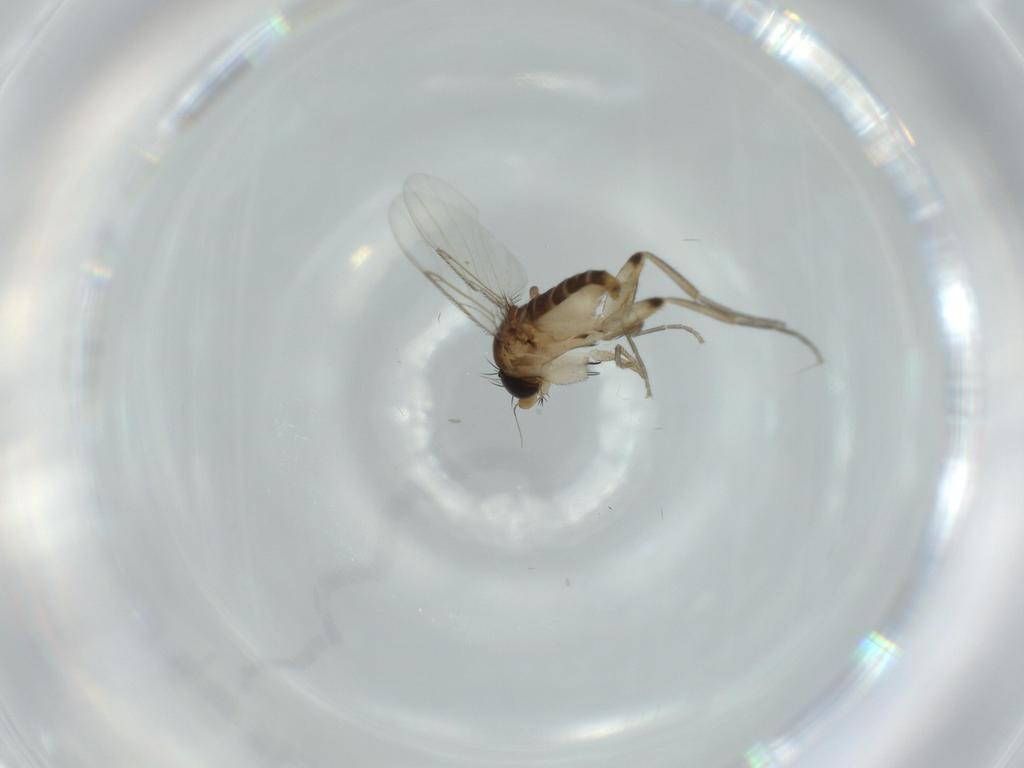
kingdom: Animalia
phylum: Arthropoda
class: Insecta
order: Diptera
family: Phoridae
